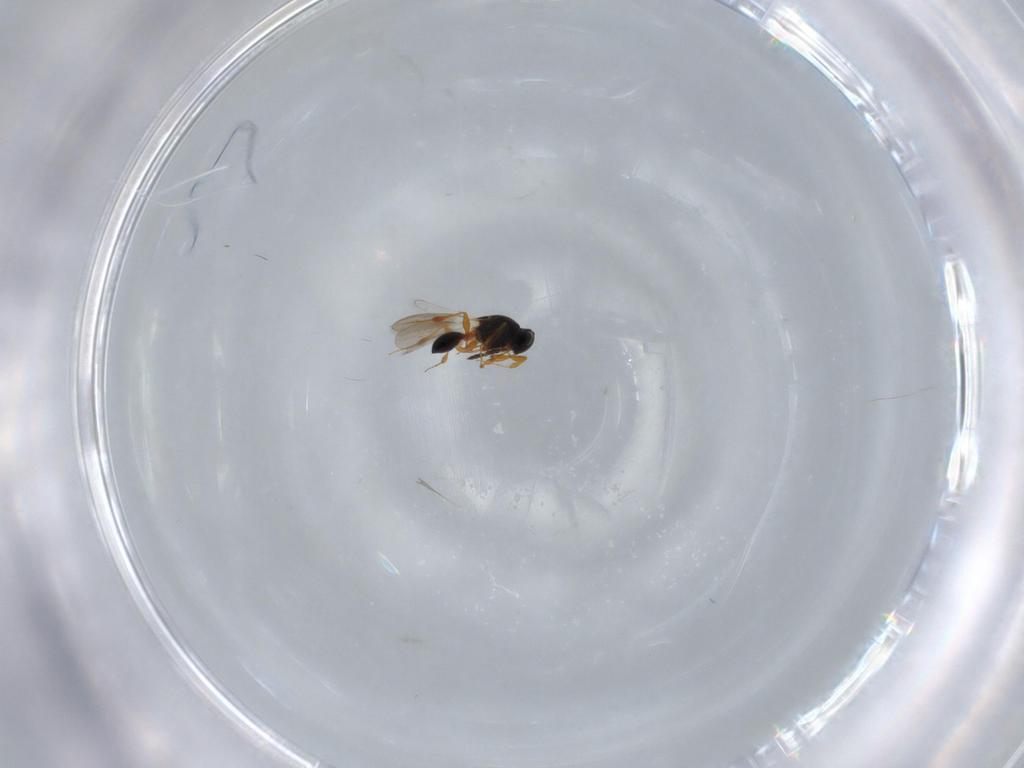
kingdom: Animalia
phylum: Arthropoda
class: Insecta
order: Hymenoptera
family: Platygastridae
